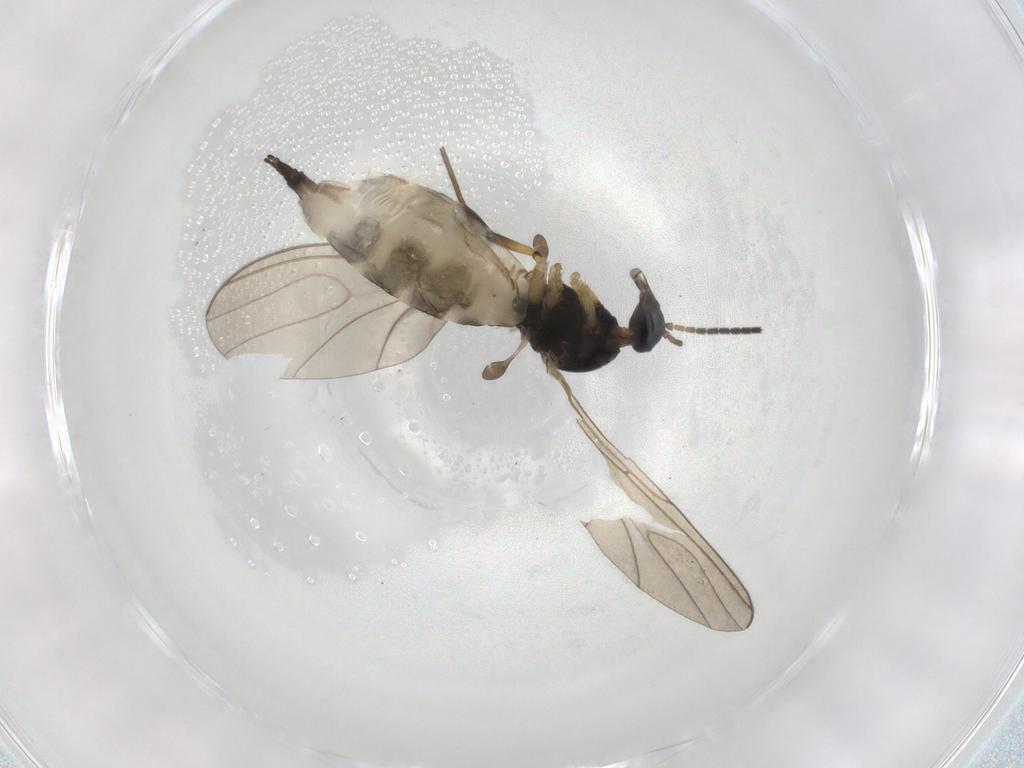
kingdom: Animalia
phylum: Arthropoda
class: Insecta
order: Diptera
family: Sciaridae
